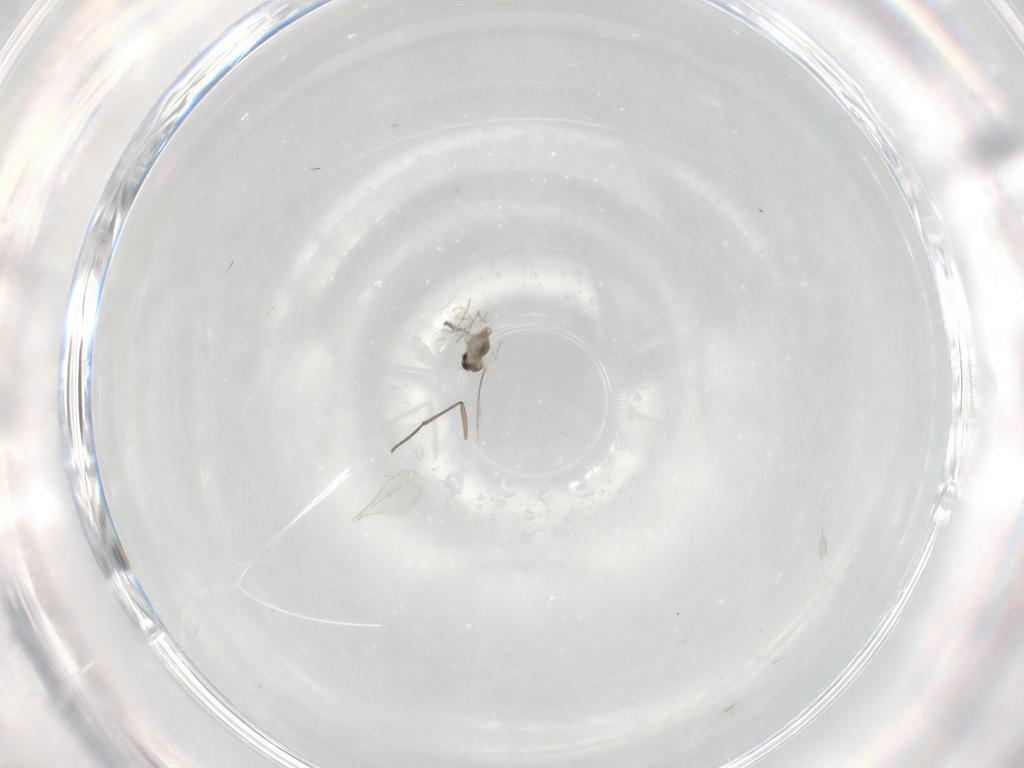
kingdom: Animalia
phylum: Arthropoda
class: Insecta
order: Diptera
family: Cecidomyiidae
